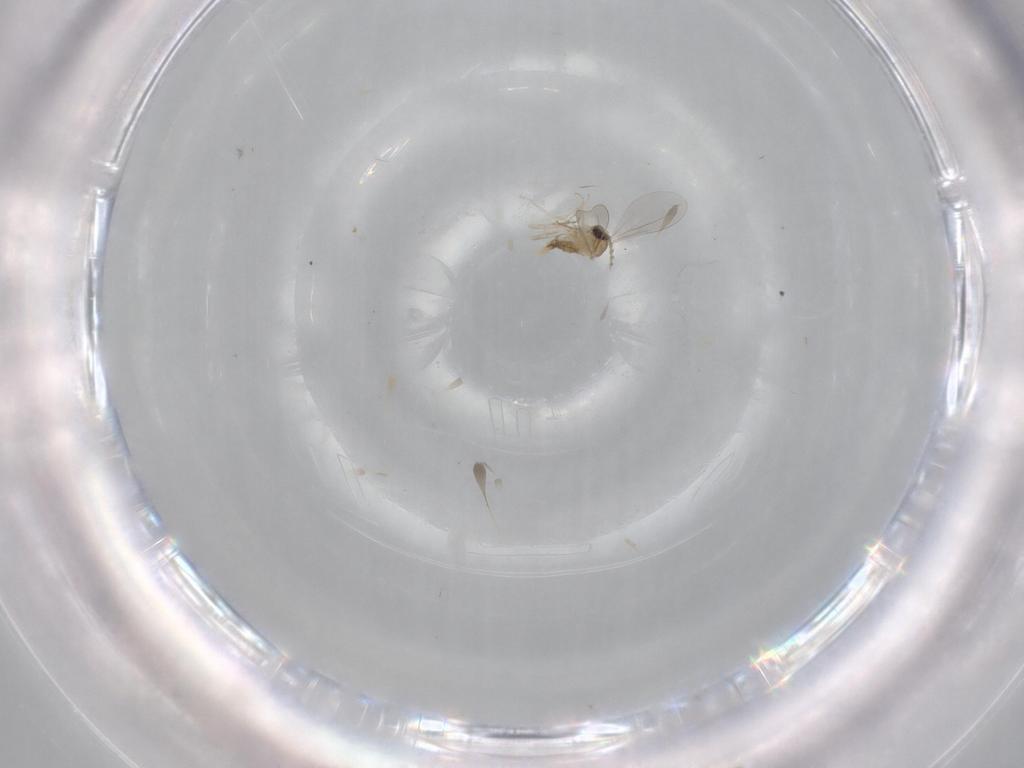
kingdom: Animalia
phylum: Arthropoda
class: Insecta
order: Diptera
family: Cecidomyiidae
